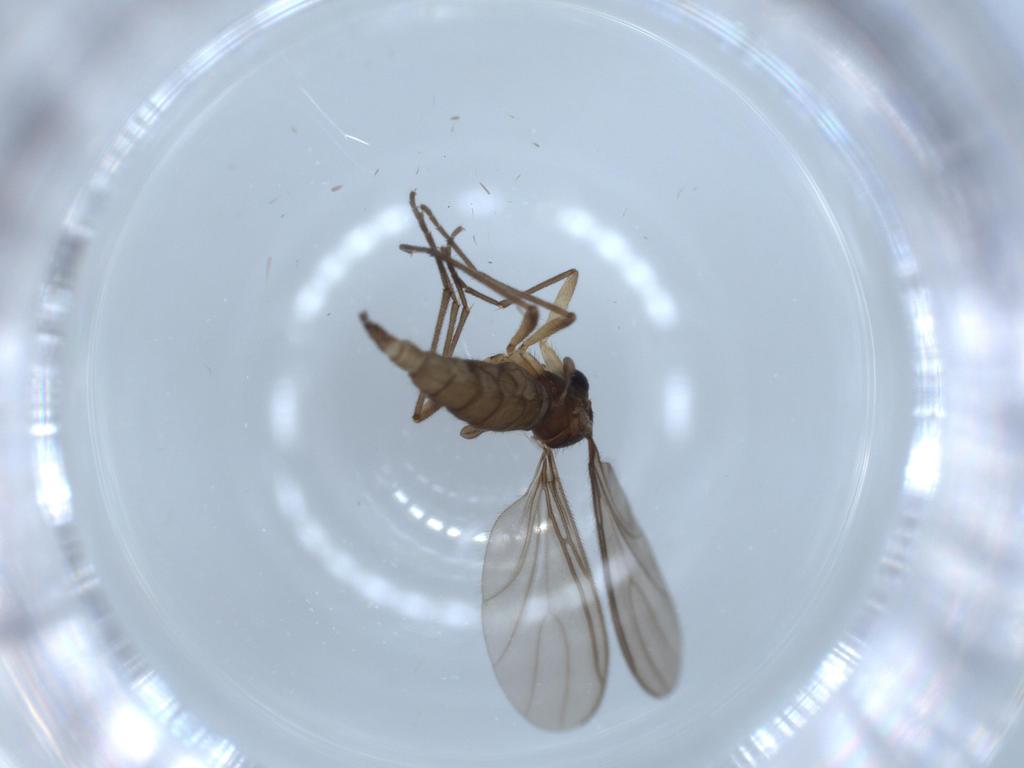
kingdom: Animalia
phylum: Arthropoda
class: Insecta
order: Diptera
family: Sciaridae
